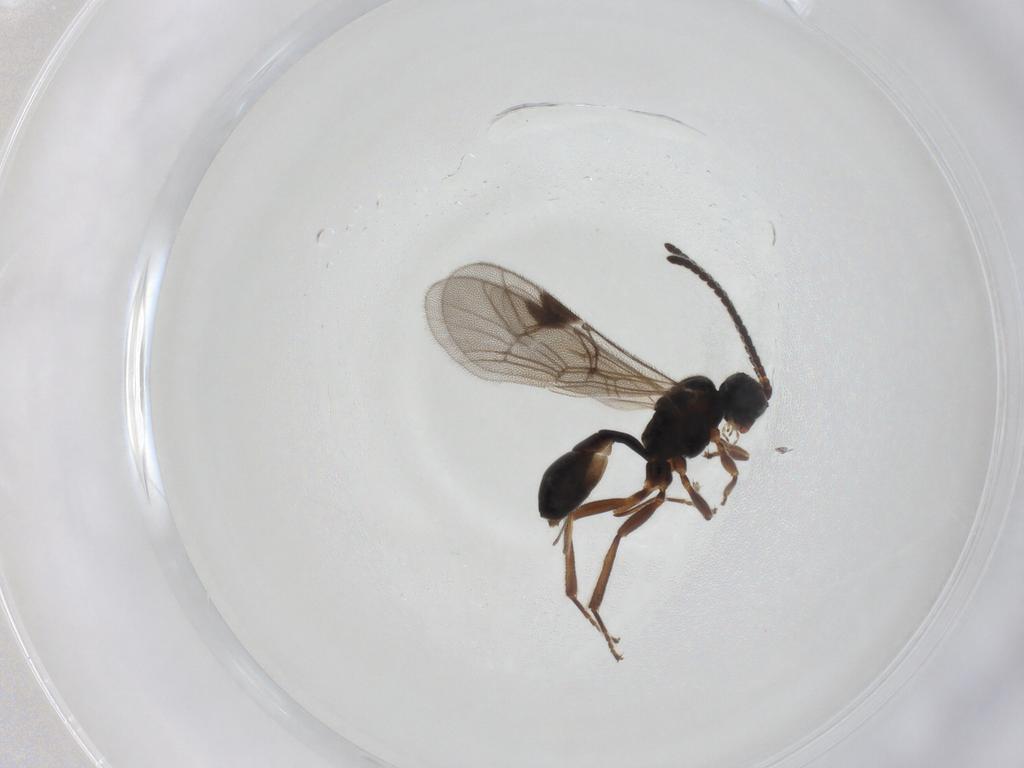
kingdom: Animalia
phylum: Arthropoda
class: Insecta
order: Hymenoptera
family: Ichneumonidae
